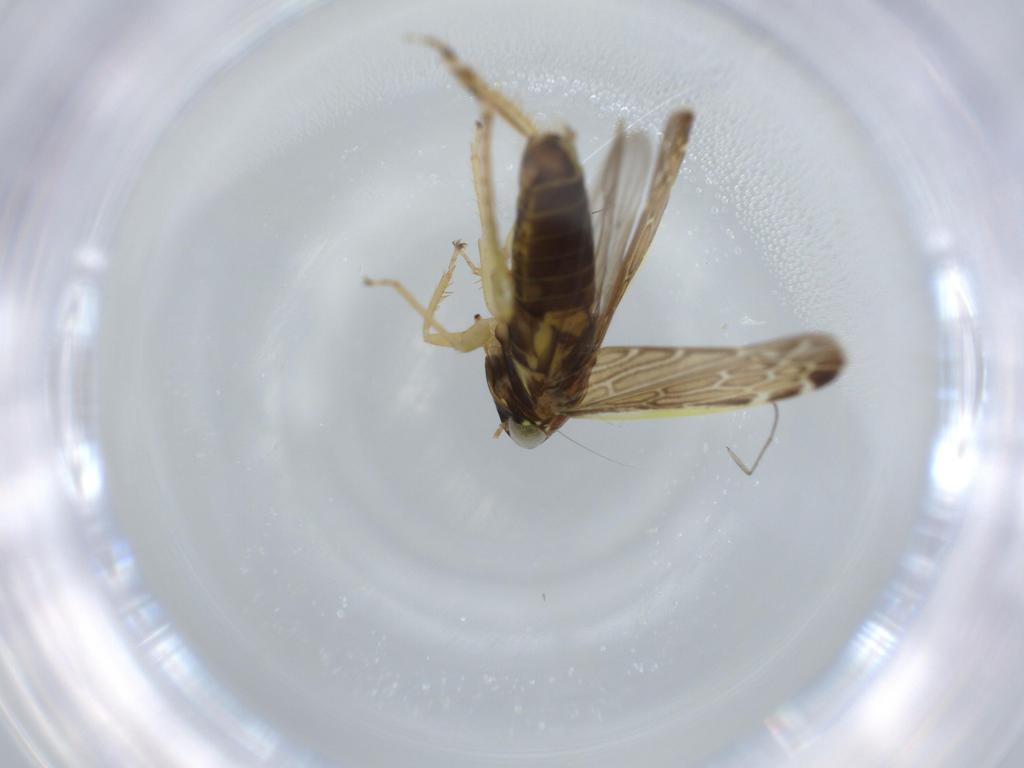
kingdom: Animalia
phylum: Arthropoda
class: Insecta
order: Hemiptera
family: Cicadellidae
